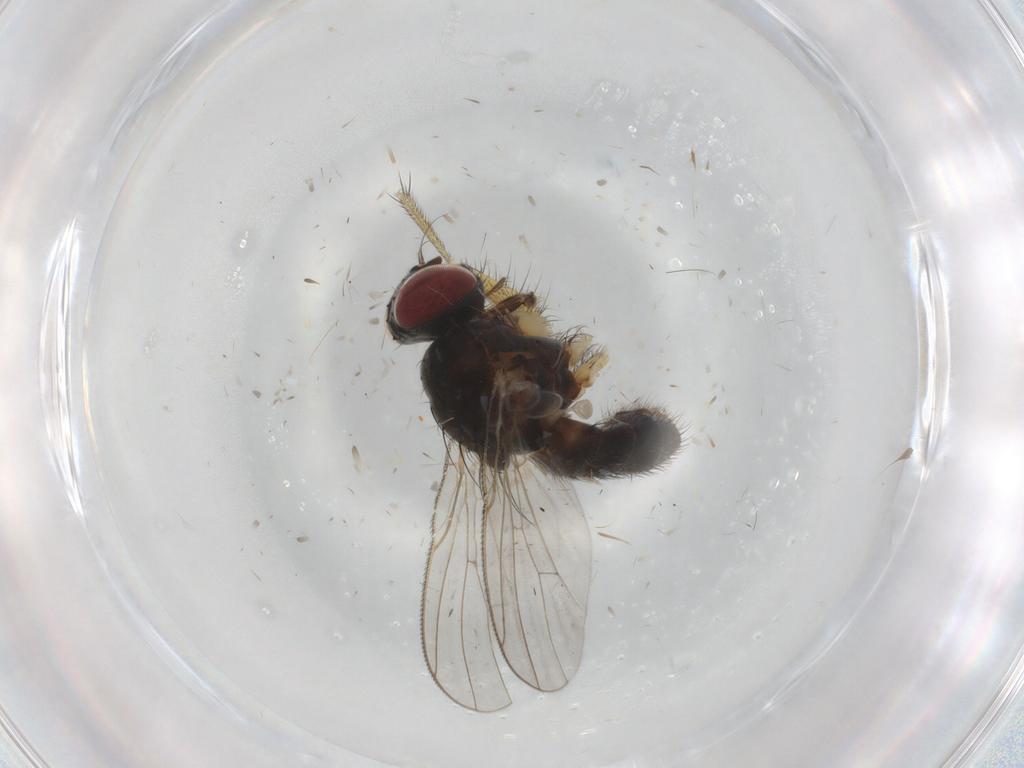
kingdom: Animalia
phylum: Arthropoda
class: Insecta
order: Diptera
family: Muscidae
